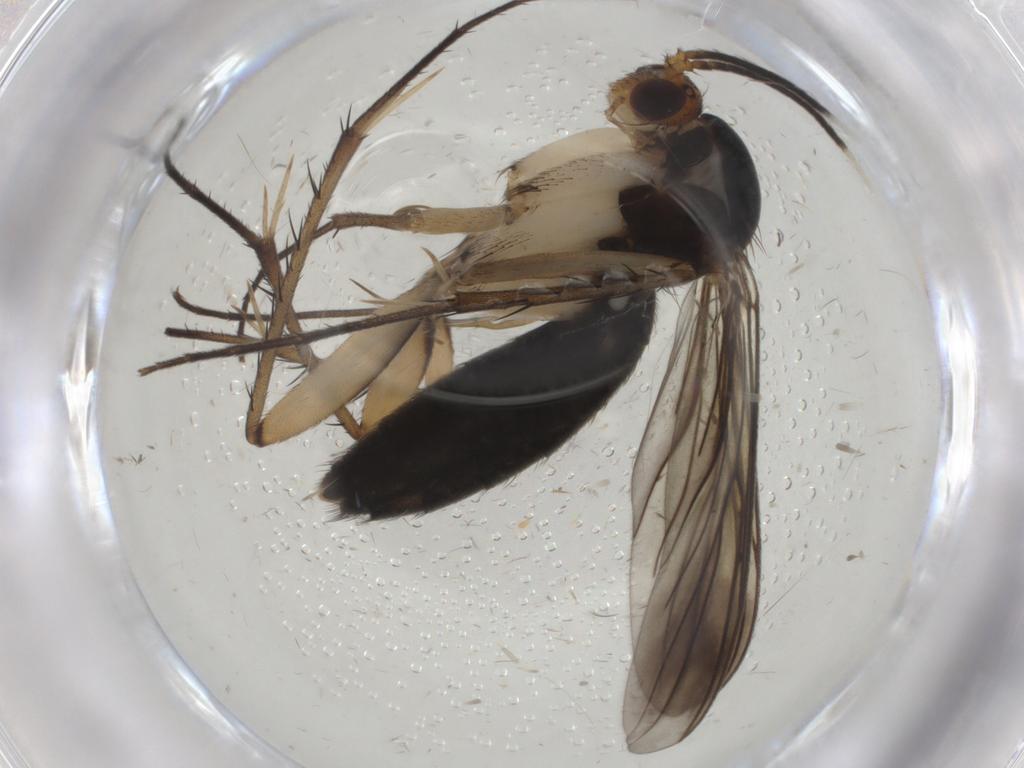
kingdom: Animalia
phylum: Arthropoda
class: Insecta
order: Diptera
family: Mycetophilidae
